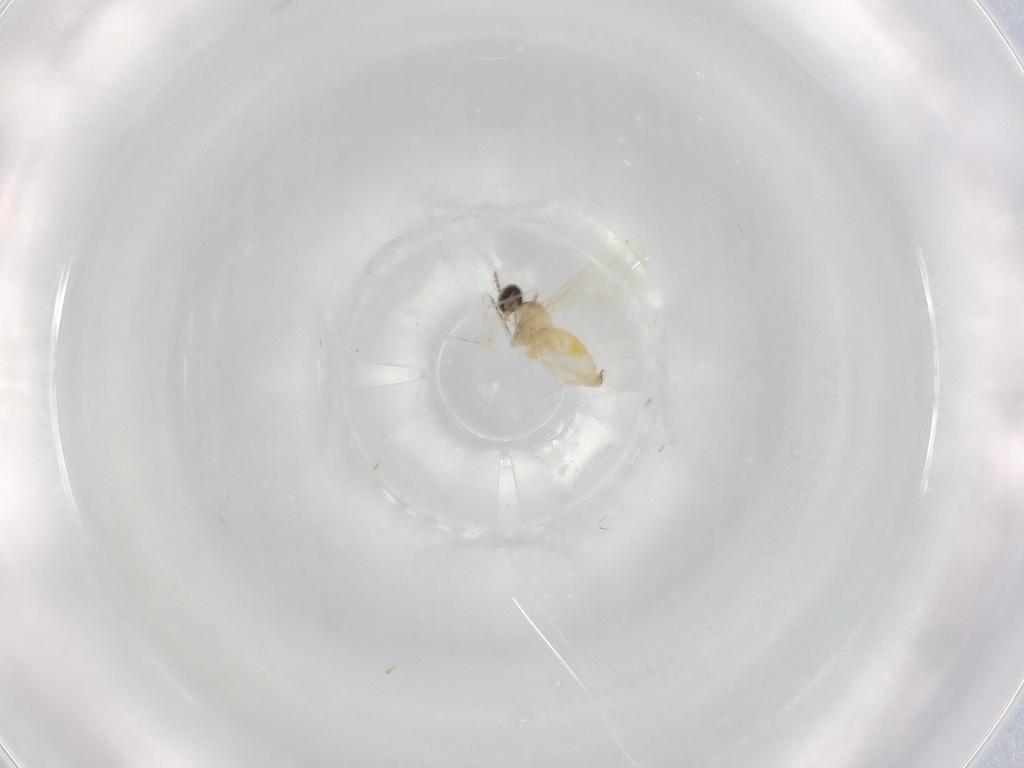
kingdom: Animalia
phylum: Arthropoda
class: Insecta
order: Diptera
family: Cecidomyiidae
